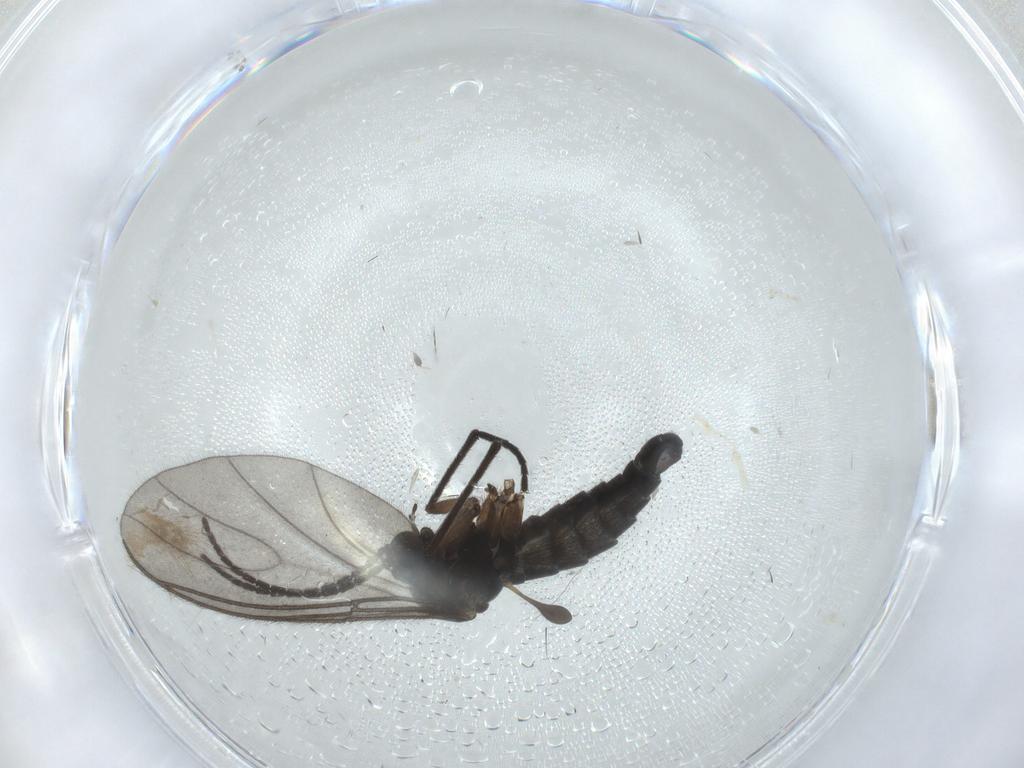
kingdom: Animalia
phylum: Arthropoda
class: Insecta
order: Diptera
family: Sciaridae
